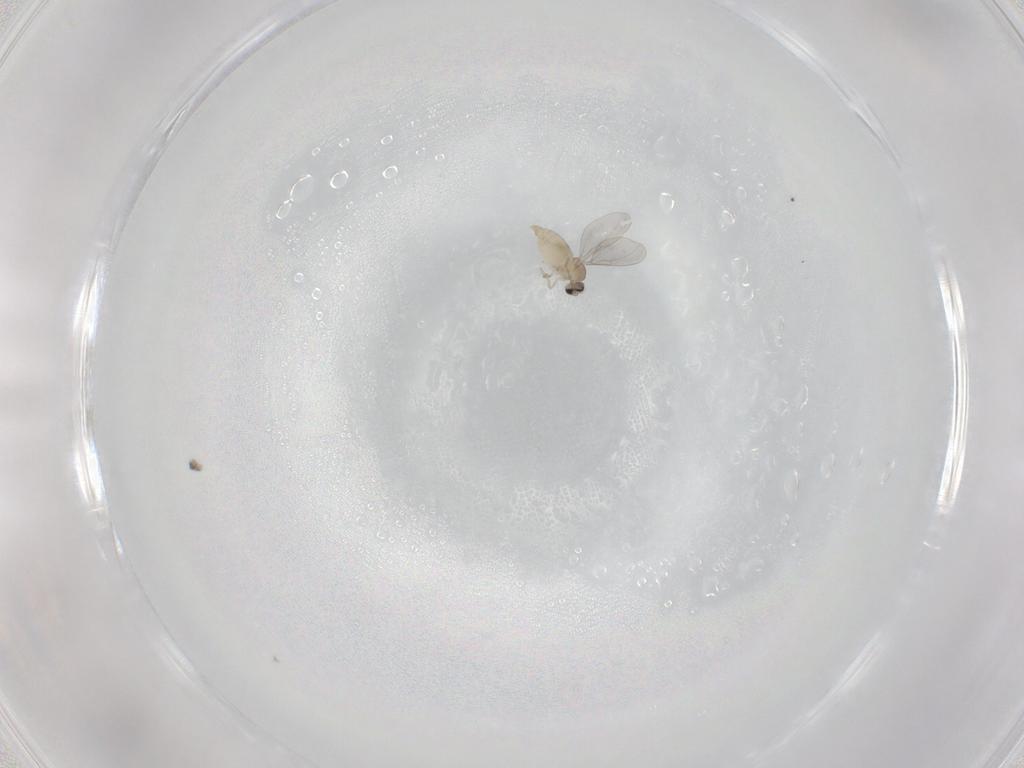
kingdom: Animalia
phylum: Arthropoda
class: Insecta
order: Diptera
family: Cecidomyiidae
